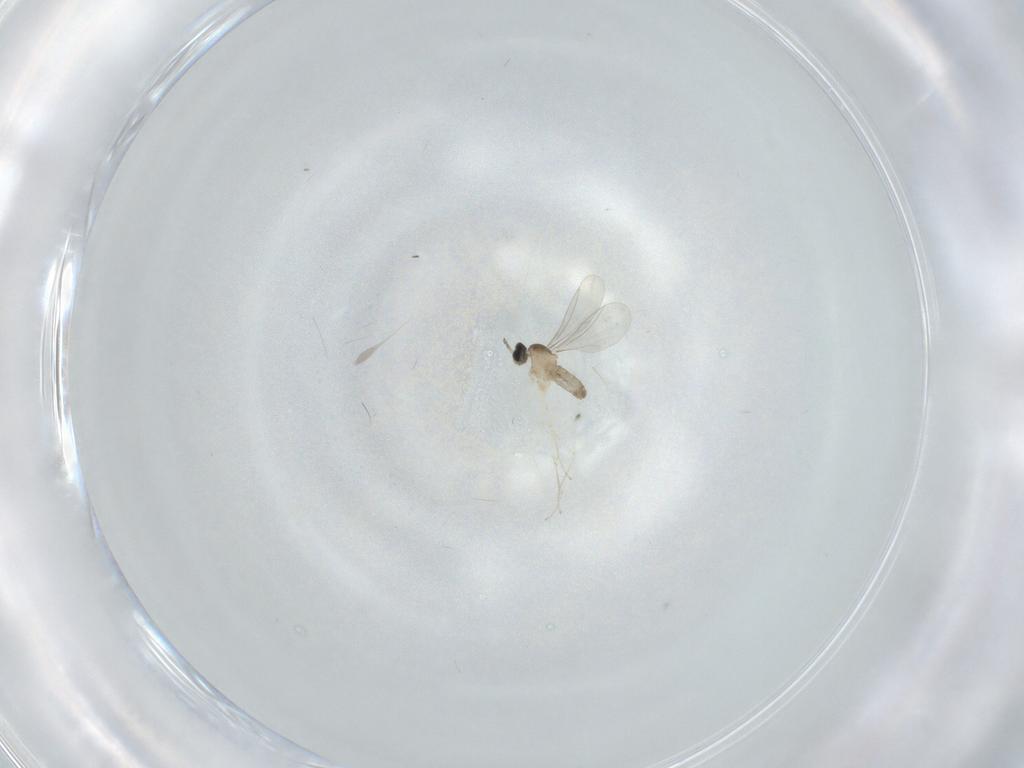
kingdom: Animalia
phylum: Arthropoda
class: Insecta
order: Diptera
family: Cecidomyiidae
